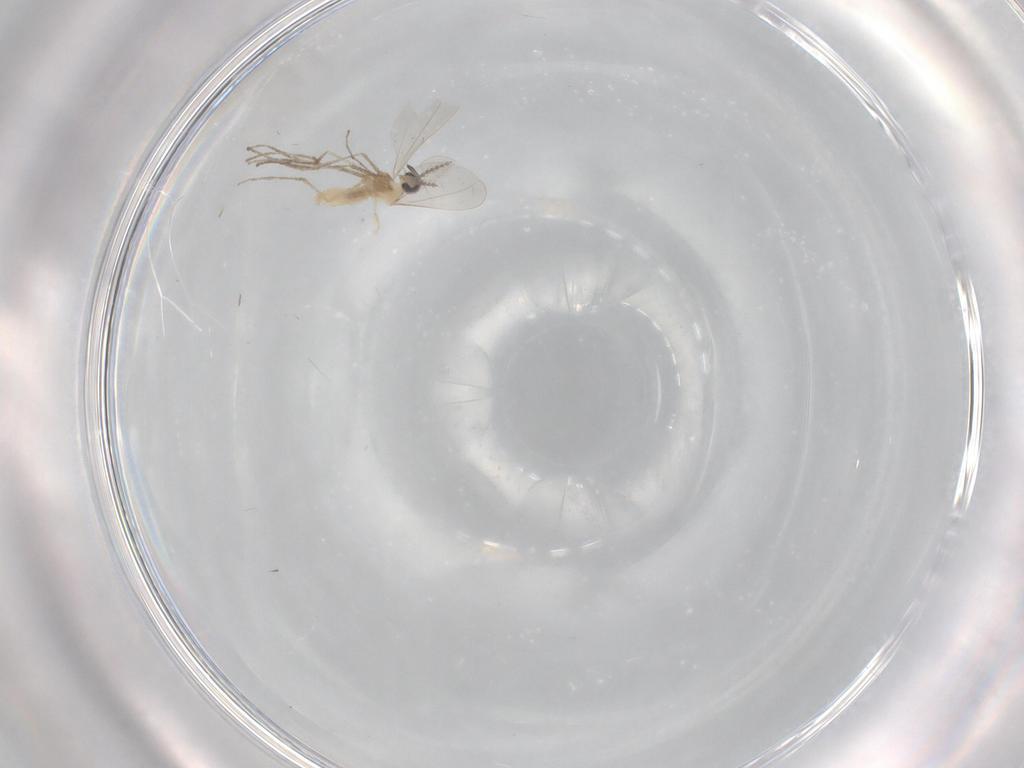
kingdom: Animalia
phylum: Arthropoda
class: Insecta
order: Diptera
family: Cecidomyiidae
